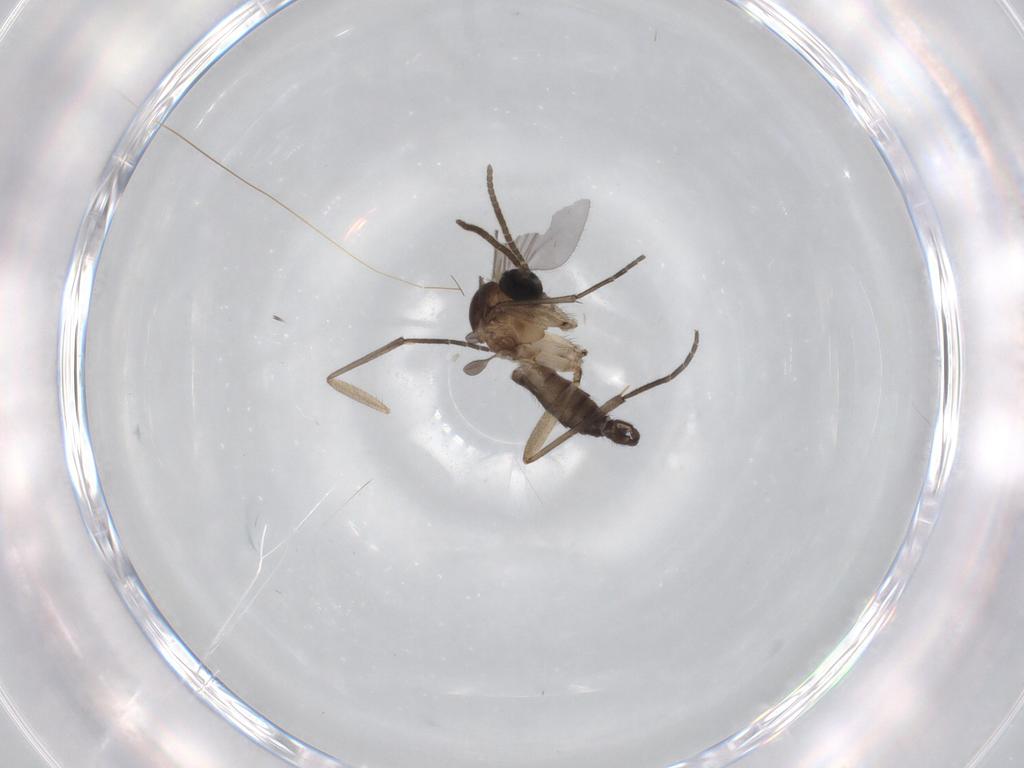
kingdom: Animalia
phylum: Arthropoda
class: Insecta
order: Diptera
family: Sciaridae
